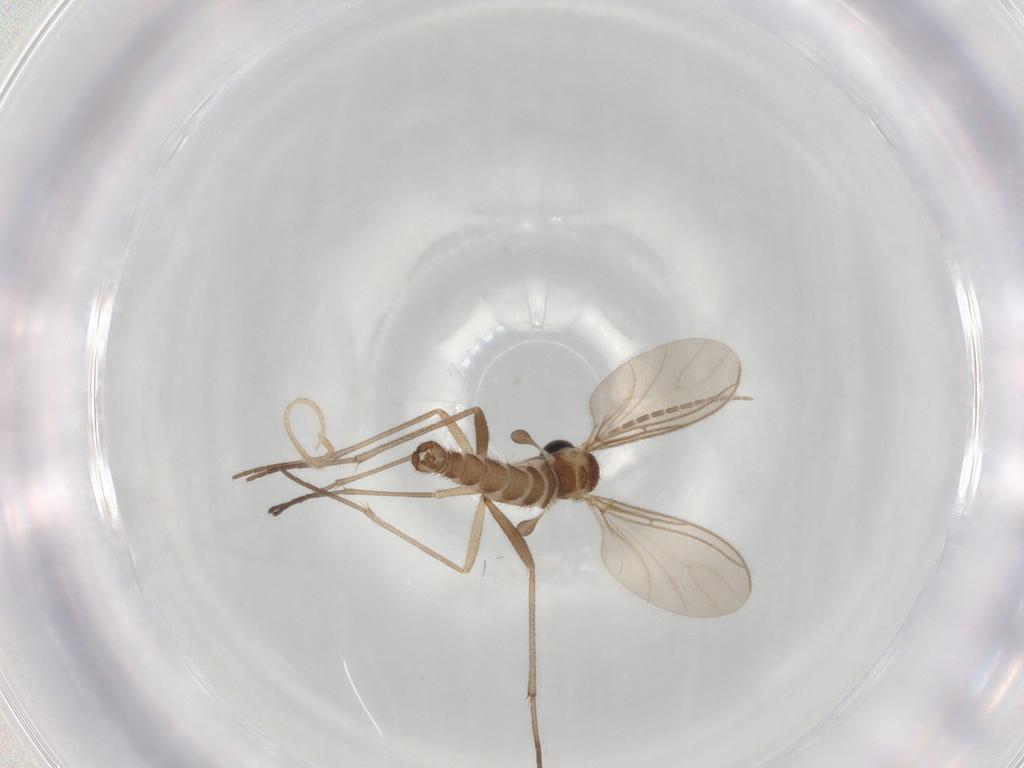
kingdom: Animalia
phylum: Arthropoda
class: Insecta
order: Diptera
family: Sciaridae
